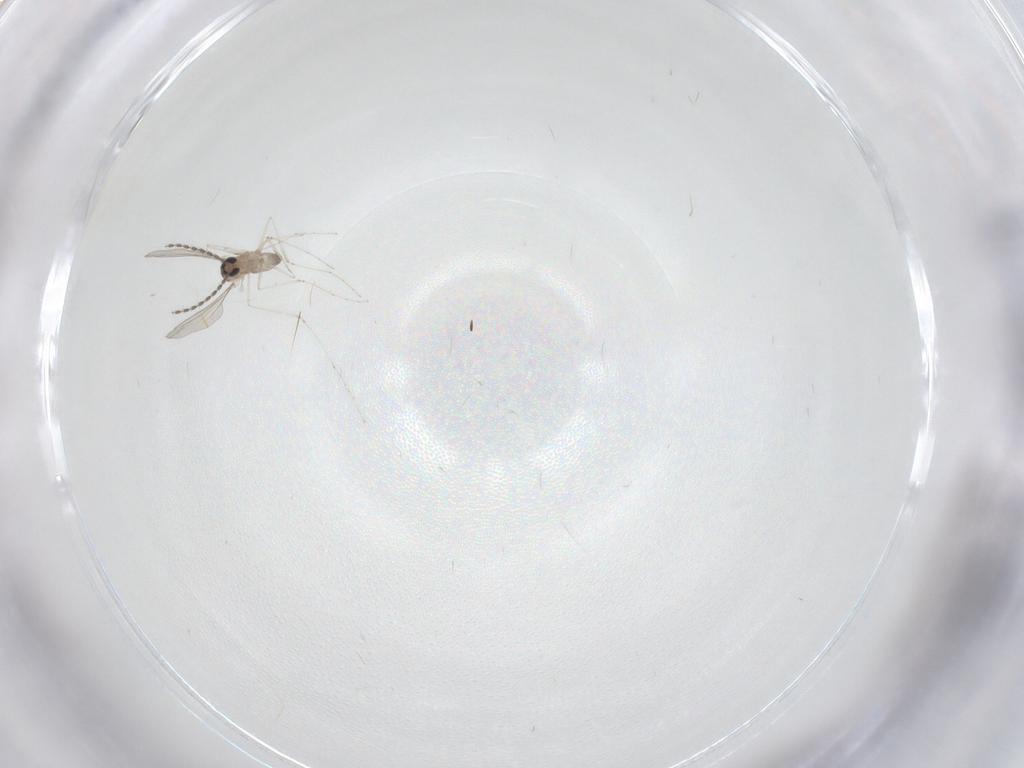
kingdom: Animalia
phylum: Arthropoda
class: Insecta
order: Diptera
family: Cecidomyiidae
